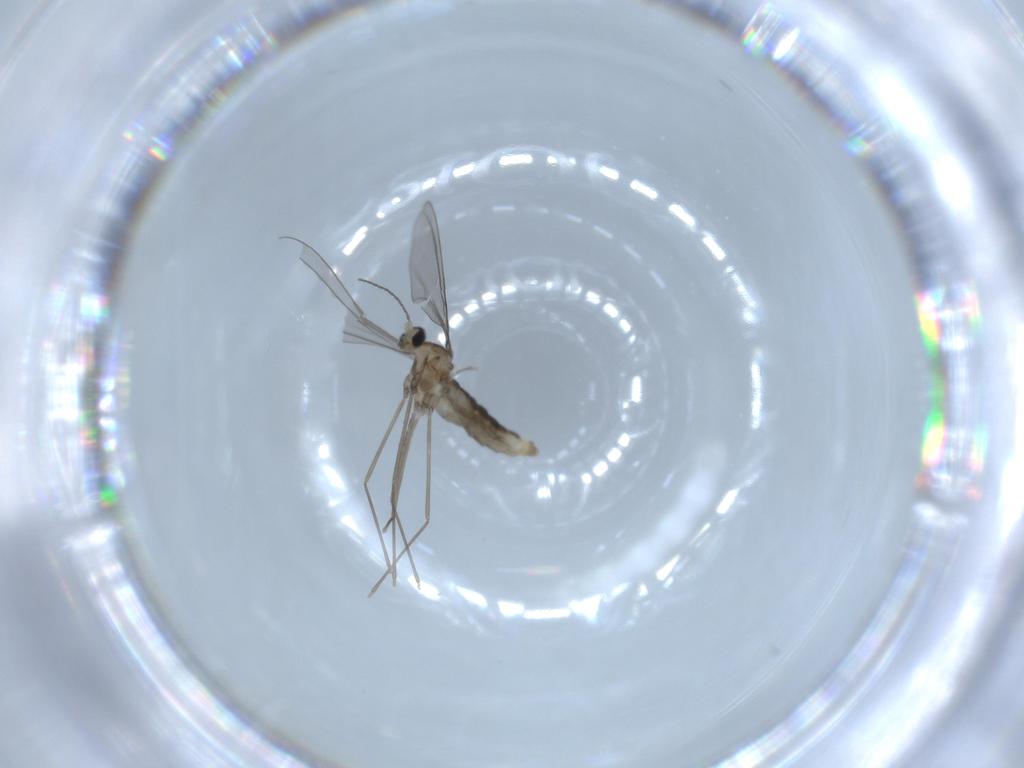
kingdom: Animalia
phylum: Arthropoda
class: Insecta
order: Diptera
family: Cecidomyiidae
